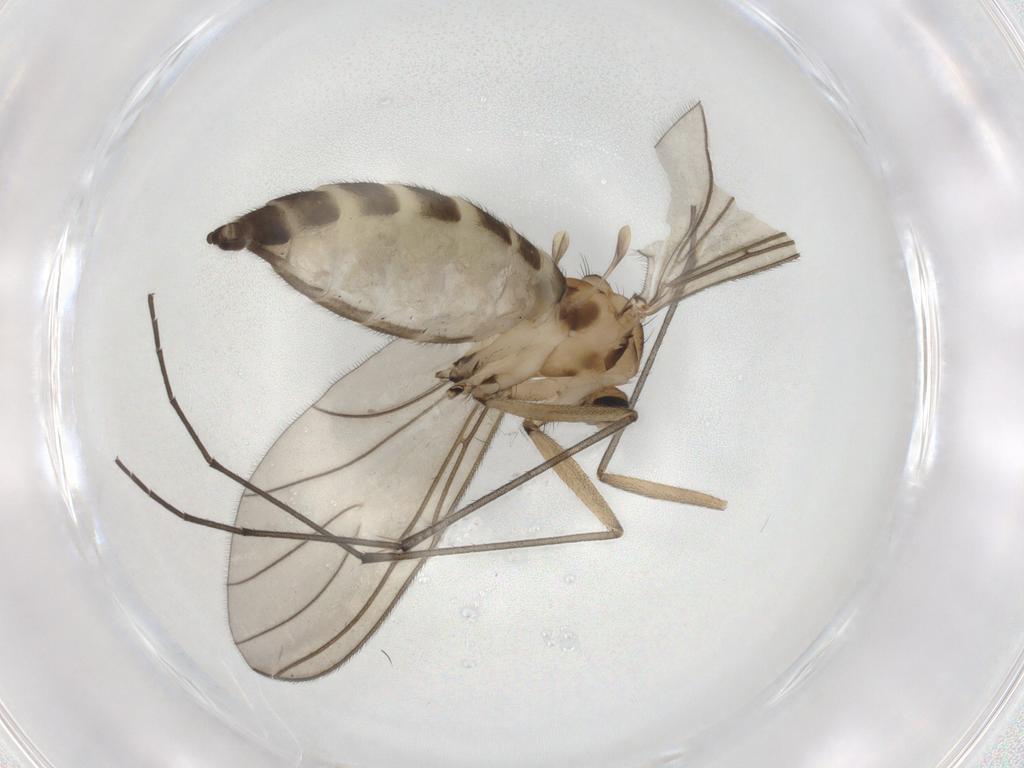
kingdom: Animalia
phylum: Arthropoda
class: Insecta
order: Diptera
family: Sciaridae
